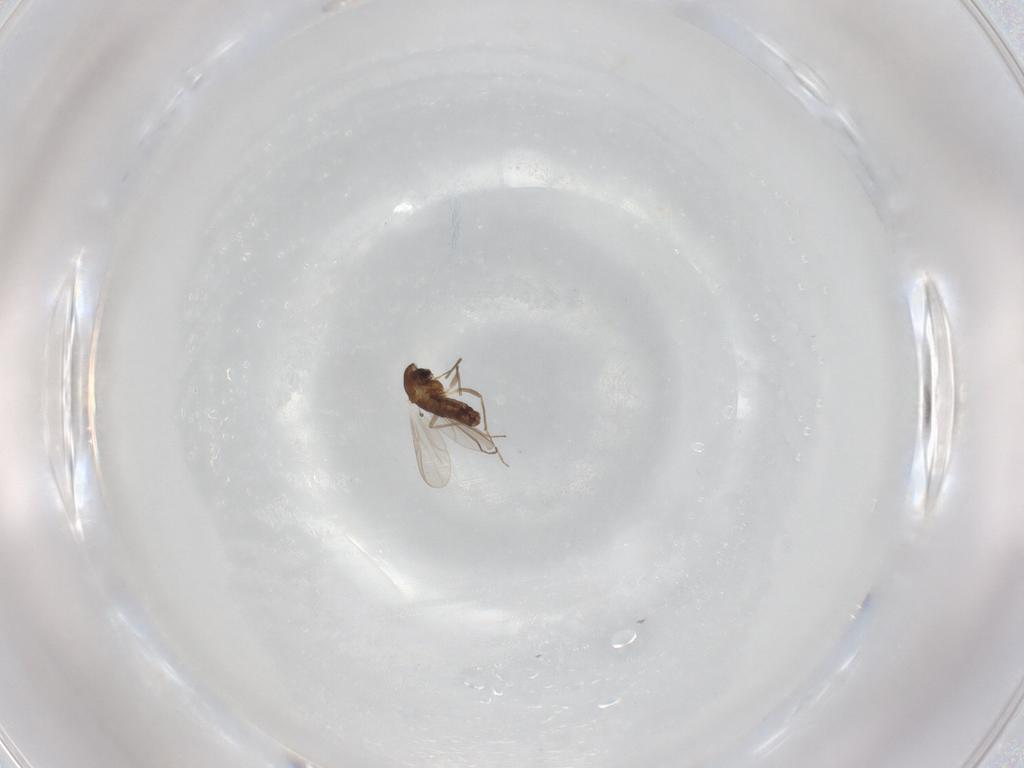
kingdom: Animalia
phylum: Arthropoda
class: Insecta
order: Diptera
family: Chironomidae
